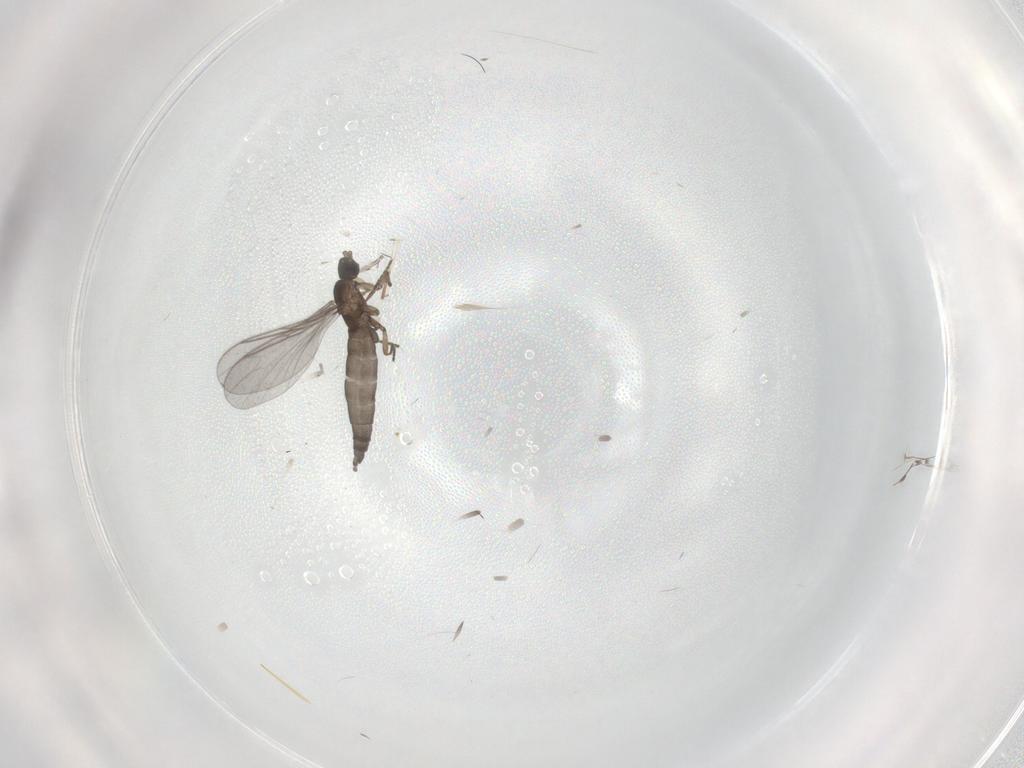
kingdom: Animalia
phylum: Arthropoda
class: Insecta
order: Diptera
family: Sciaridae
